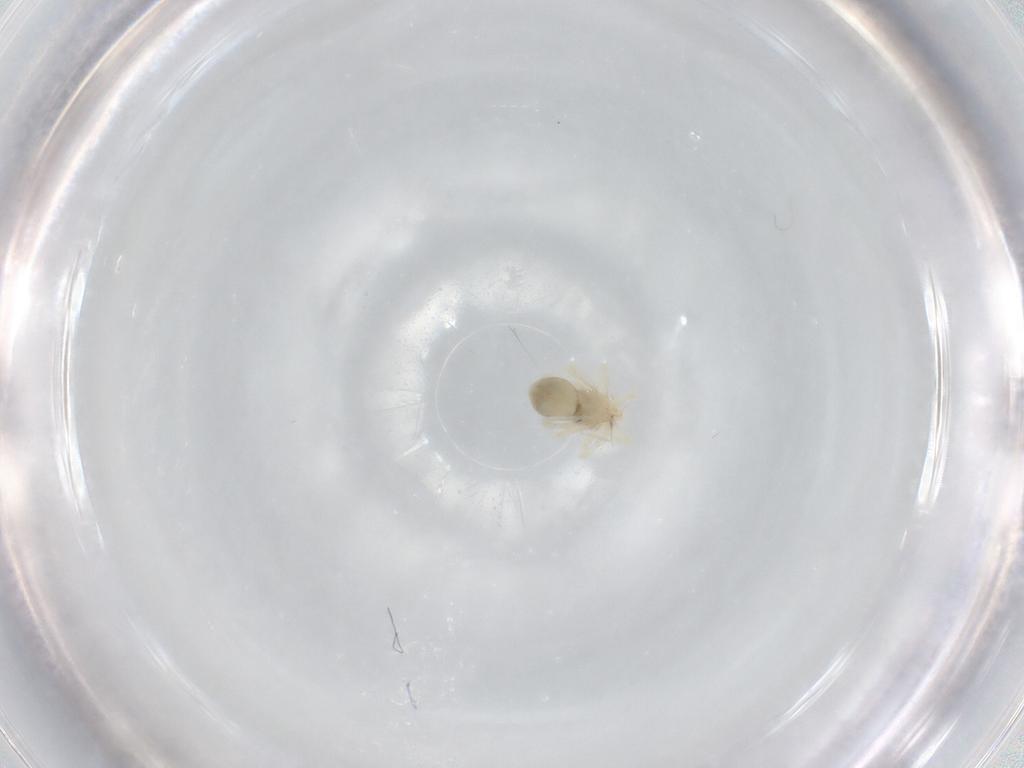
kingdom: Animalia
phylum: Arthropoda
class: Arachnida
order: Trombidiformes
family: Anystidae
